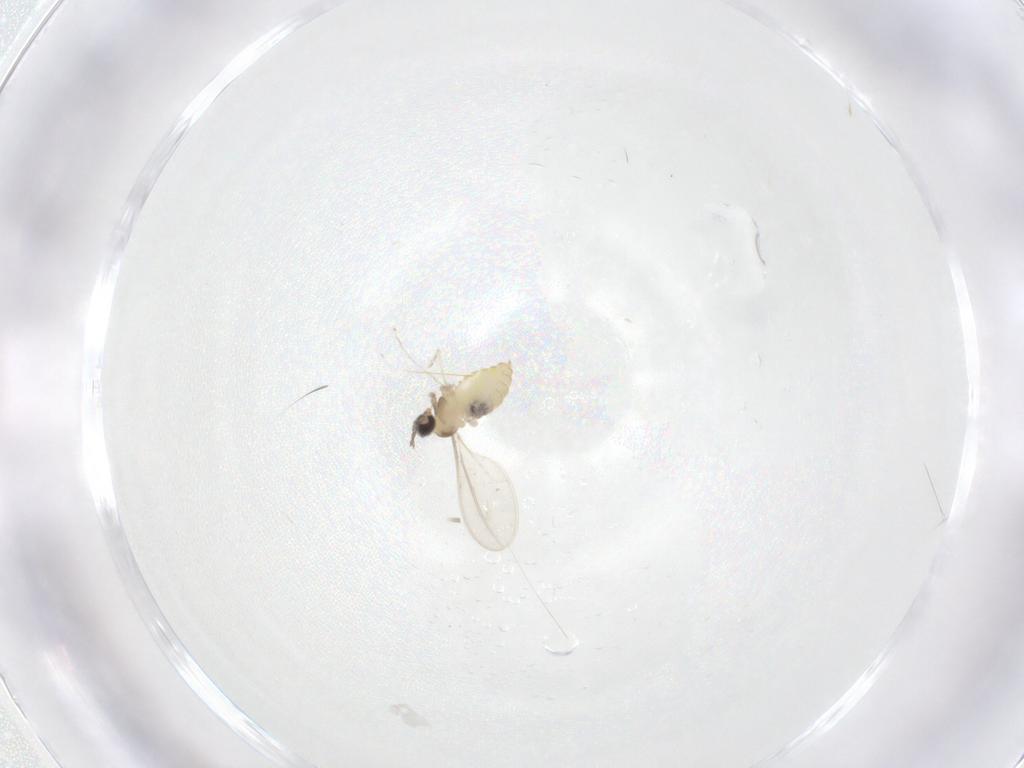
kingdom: Animalia
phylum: Arthropoda
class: Insecta
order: Diptera
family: Cecidomyiidae
